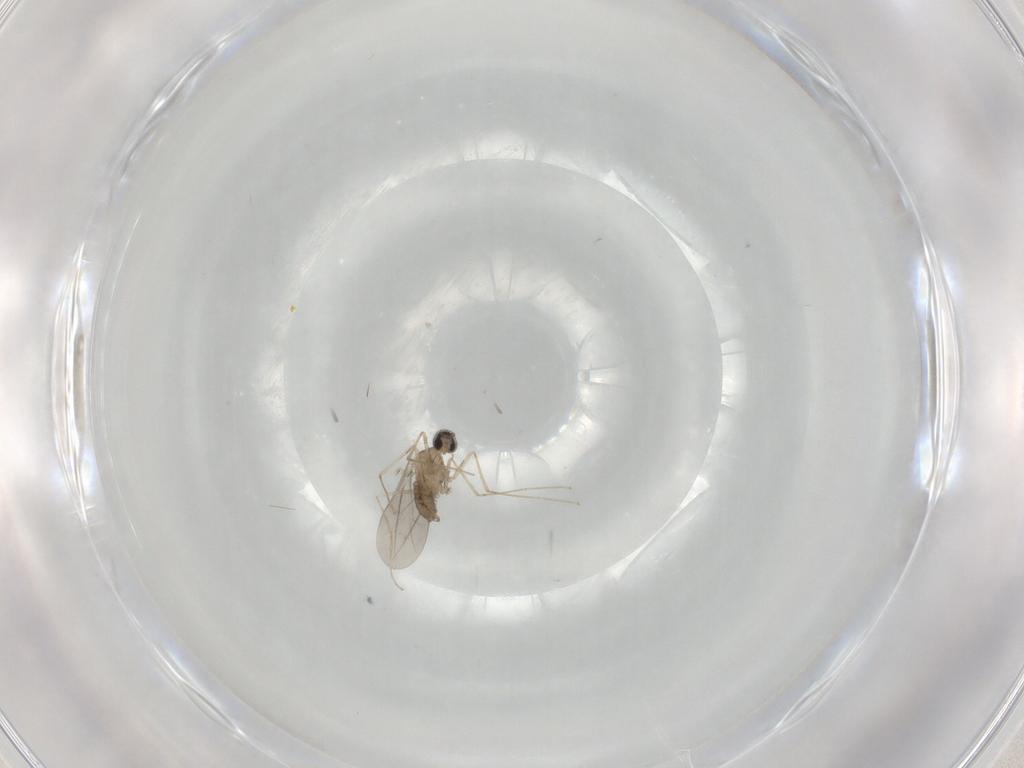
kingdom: Animalia
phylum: Arthropoda
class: Insecta
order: Diptera
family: Cecidomyiidae
